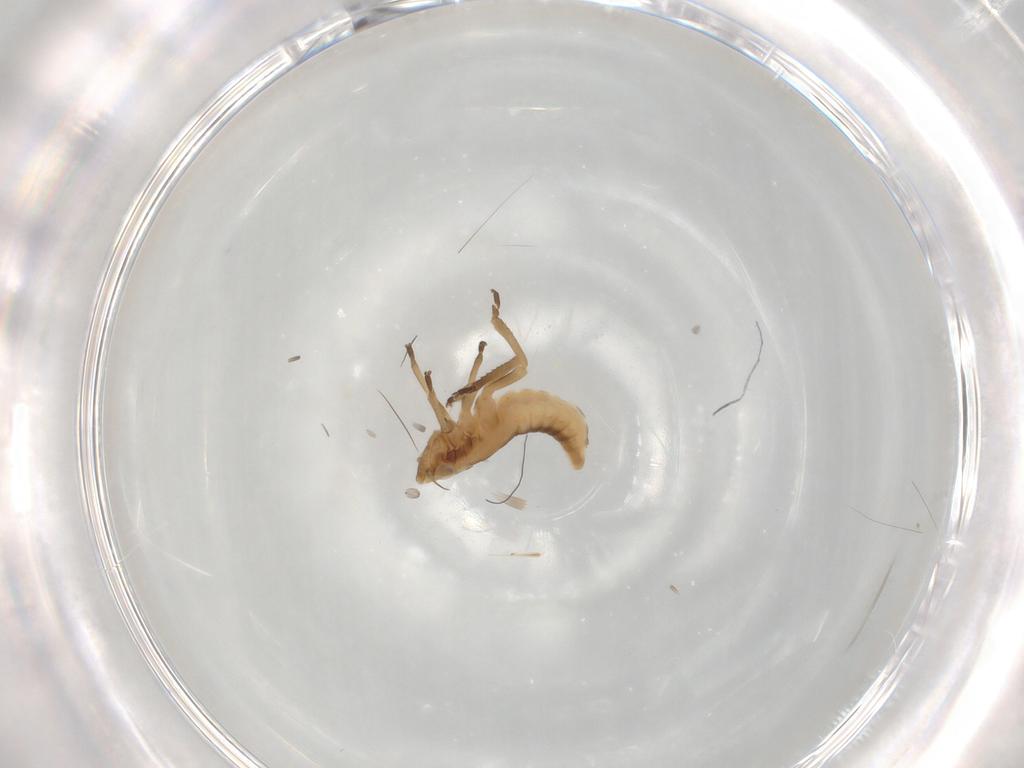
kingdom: Animalia
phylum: Arthropoda
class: Insecta
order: Hemiptera
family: Cicadellidae
